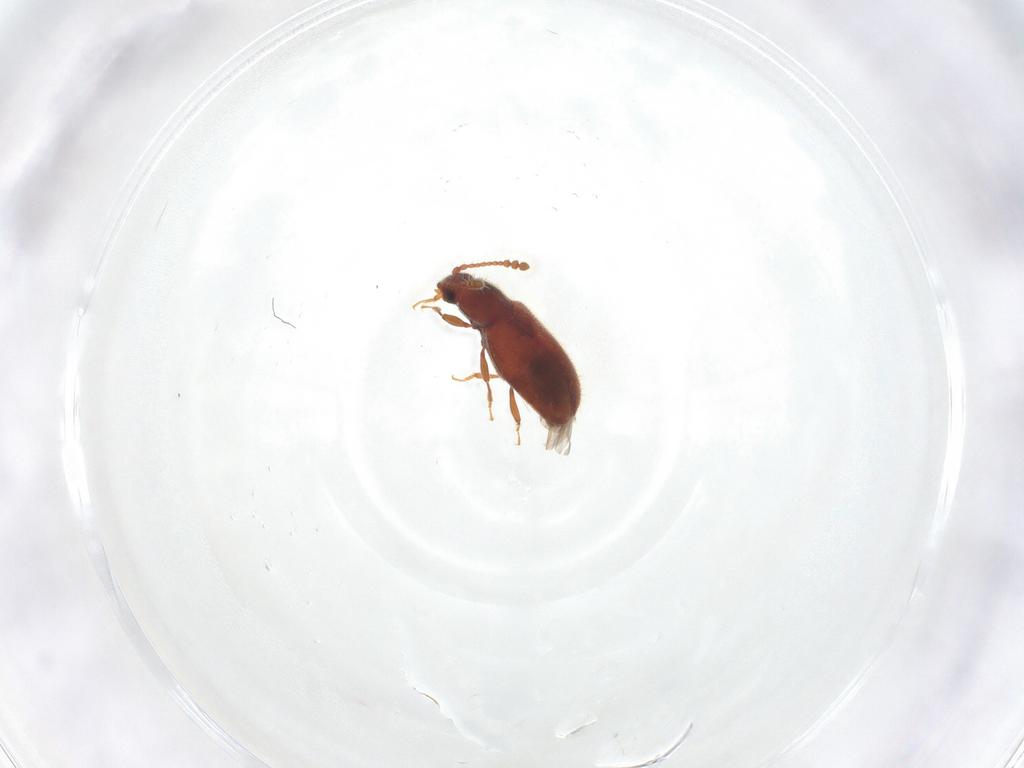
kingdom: Animalia
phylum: Arthropoda
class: Insecta
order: Coleoptera
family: Cryptophagidae
